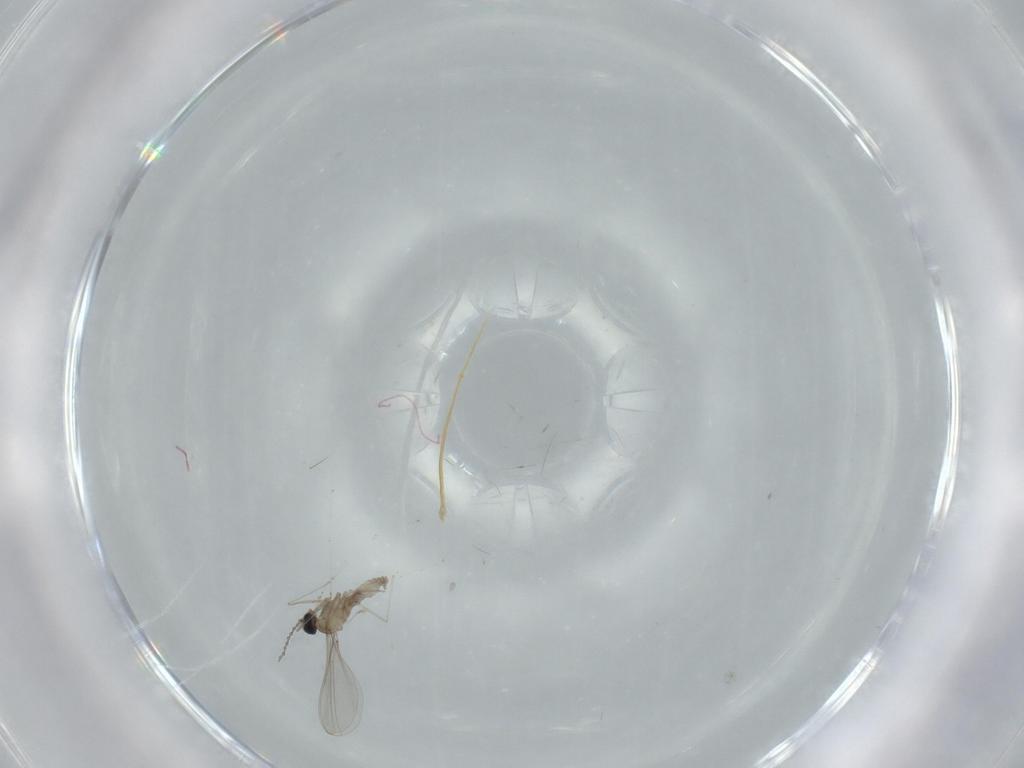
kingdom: Animalia
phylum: Arthropoda
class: Insecta
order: Diptera
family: Cecidomyiidae
